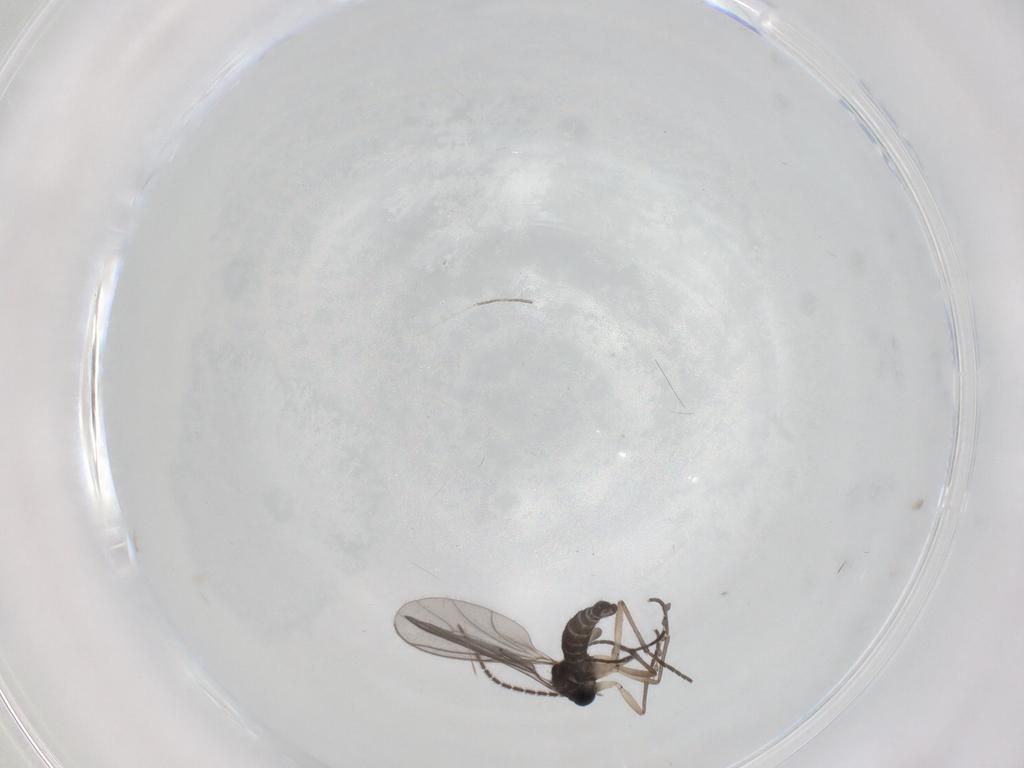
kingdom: Animalia
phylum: Arthropoda
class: Insecta
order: Diptera
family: Sciaridae
